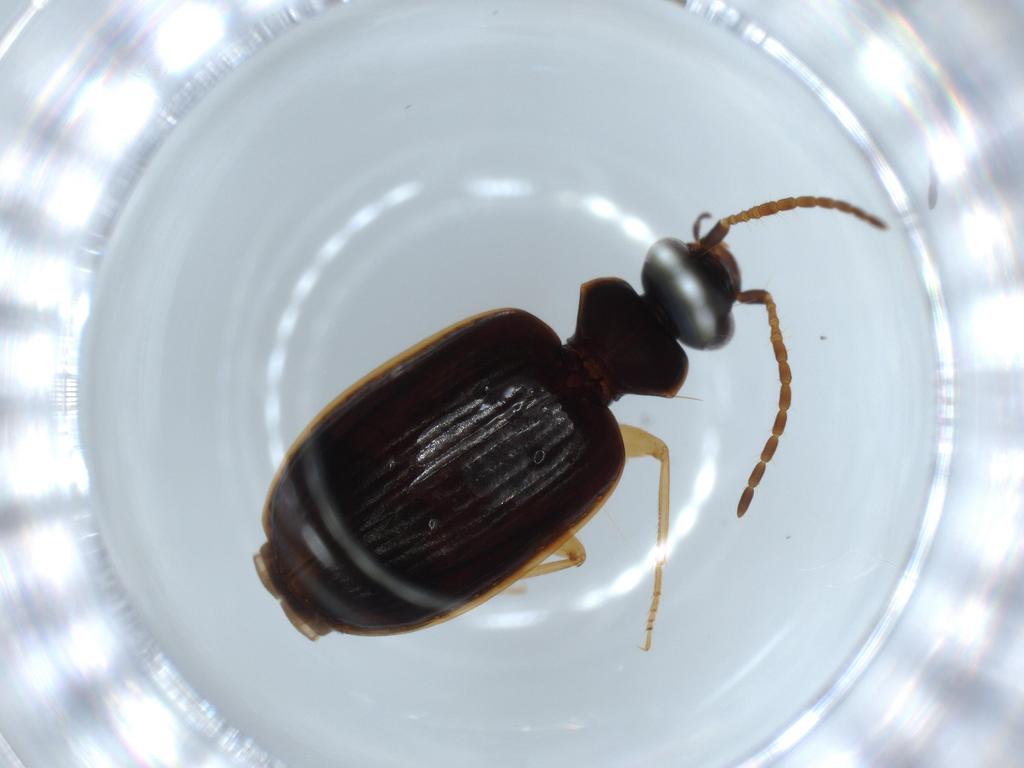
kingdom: Animalia
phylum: Arthropoda
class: Insecta
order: Coleoptera
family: Carabidae
